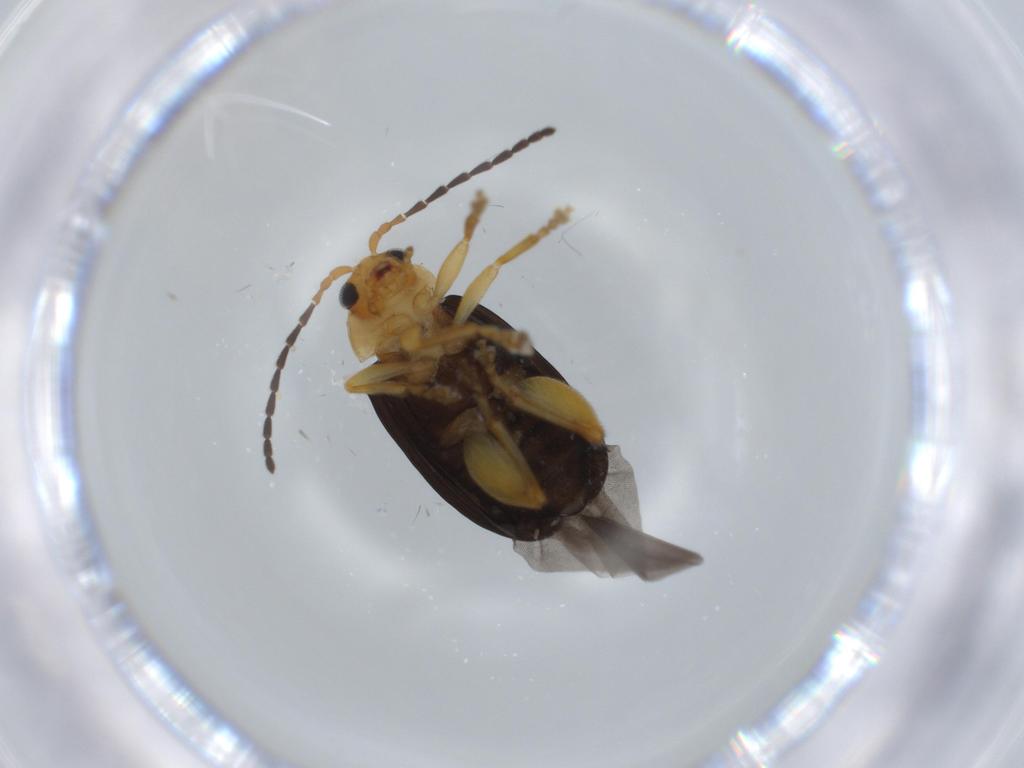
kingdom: Animalia
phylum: Arthropoda
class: Insecta
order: Coleoptera
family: Chrysomelidae
